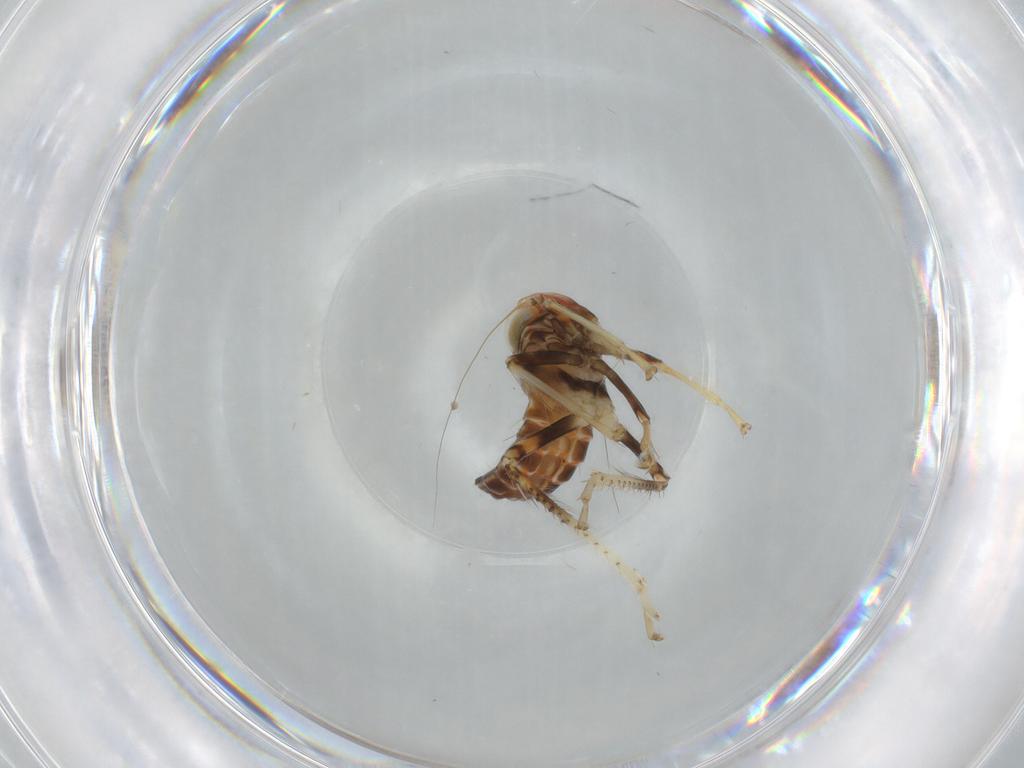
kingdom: Animalia
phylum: Arthropoda
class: Insecta
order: Hemiptera
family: Cicadellidae
